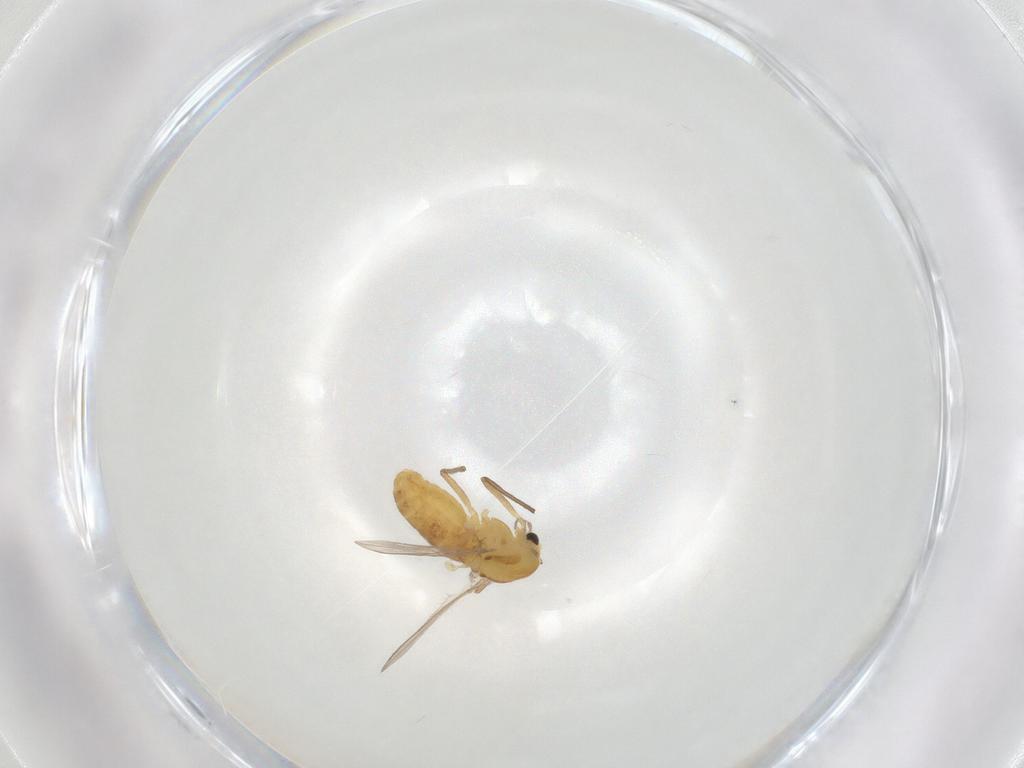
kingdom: Animalia
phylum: Arthropoda
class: Insecta
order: Diptera
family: Chironomidae
